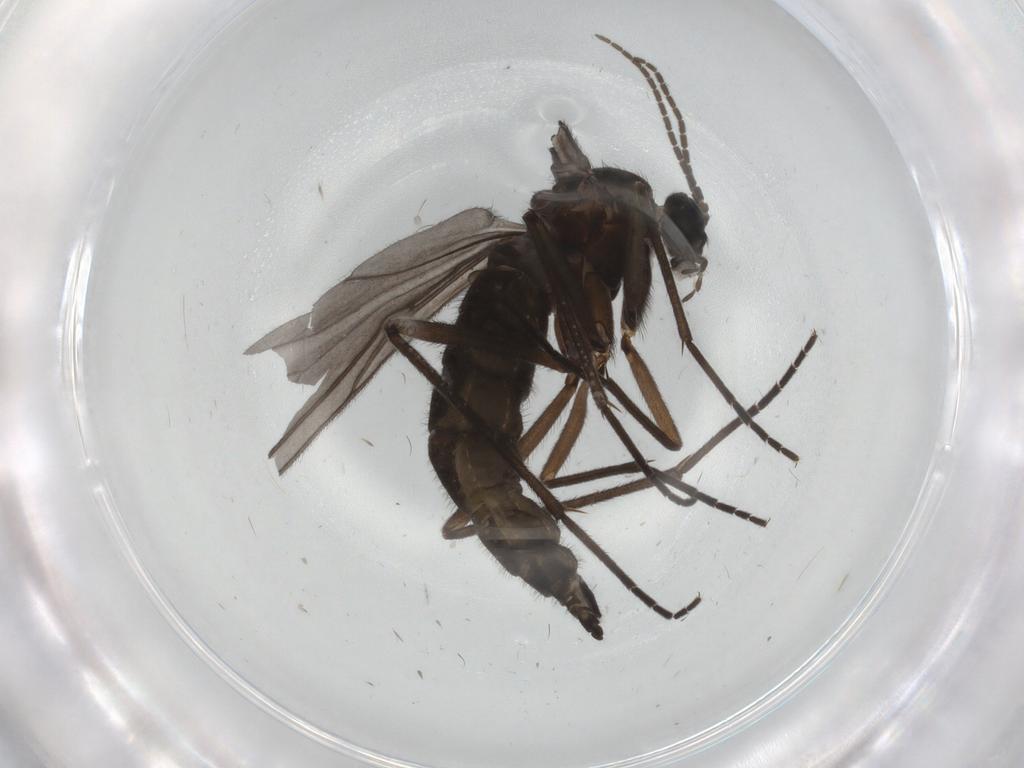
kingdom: Animalia
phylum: Arthropoda
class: Insecta
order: Diptera
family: Sciaridae
